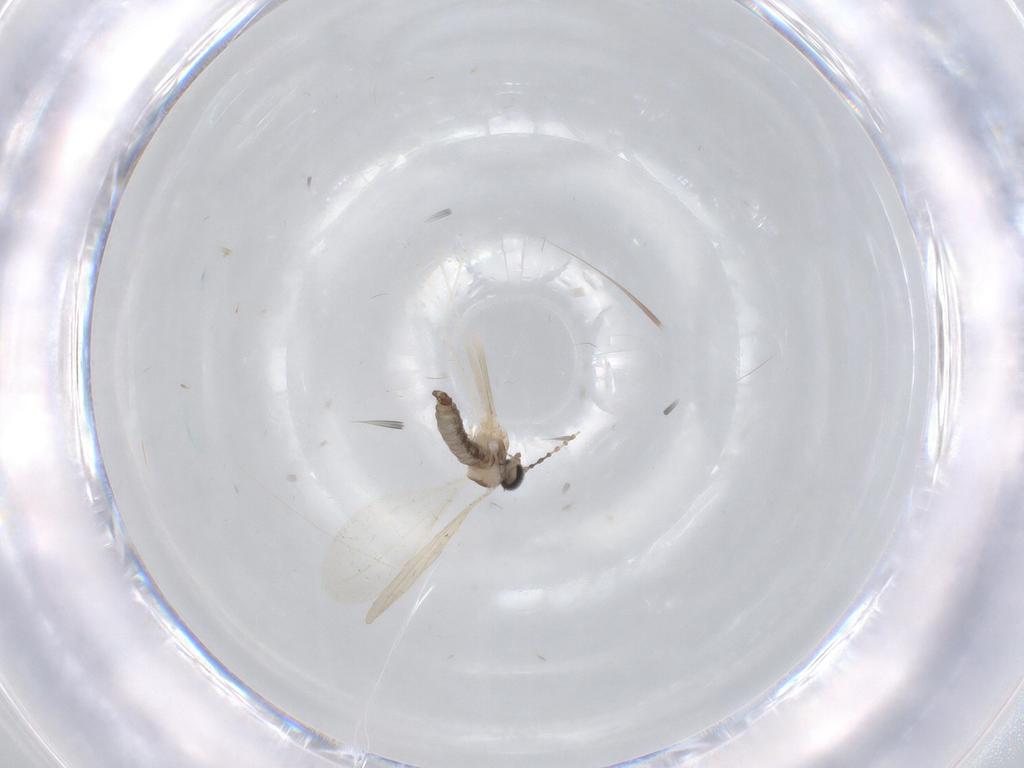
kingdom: Animalia
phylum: Arthropoda
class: Insecta
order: Diptera
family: Cecidomyiidae
